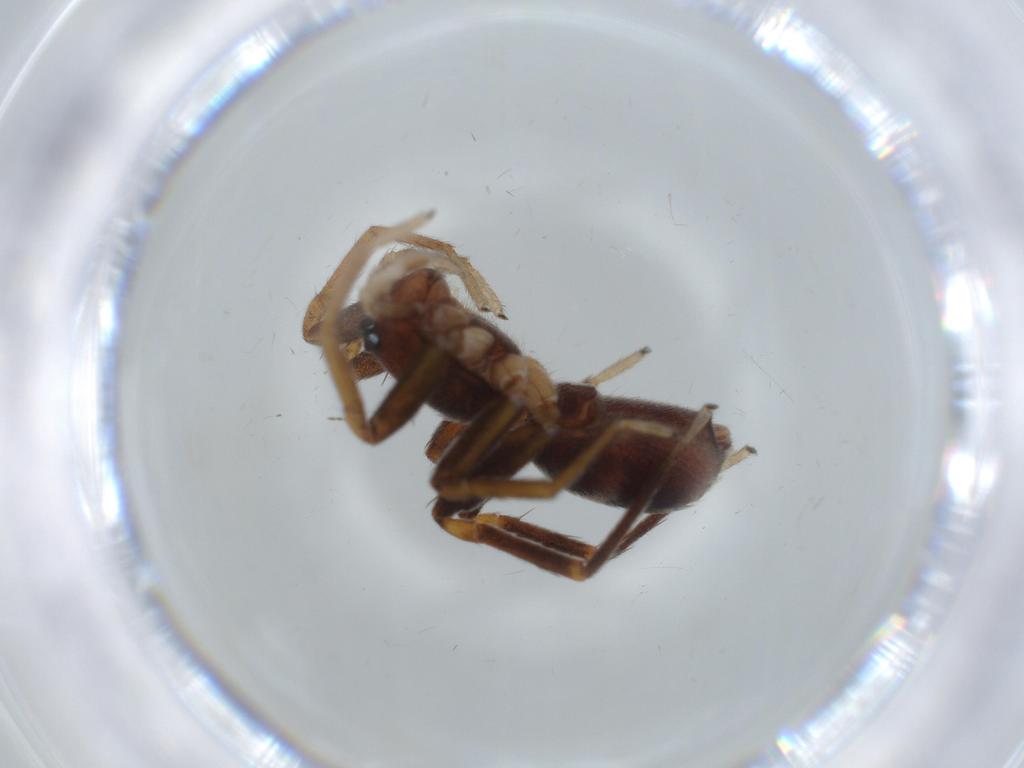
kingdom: Animalia
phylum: Arthropoda
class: Arachnida
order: Araneae
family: Corinnidae
